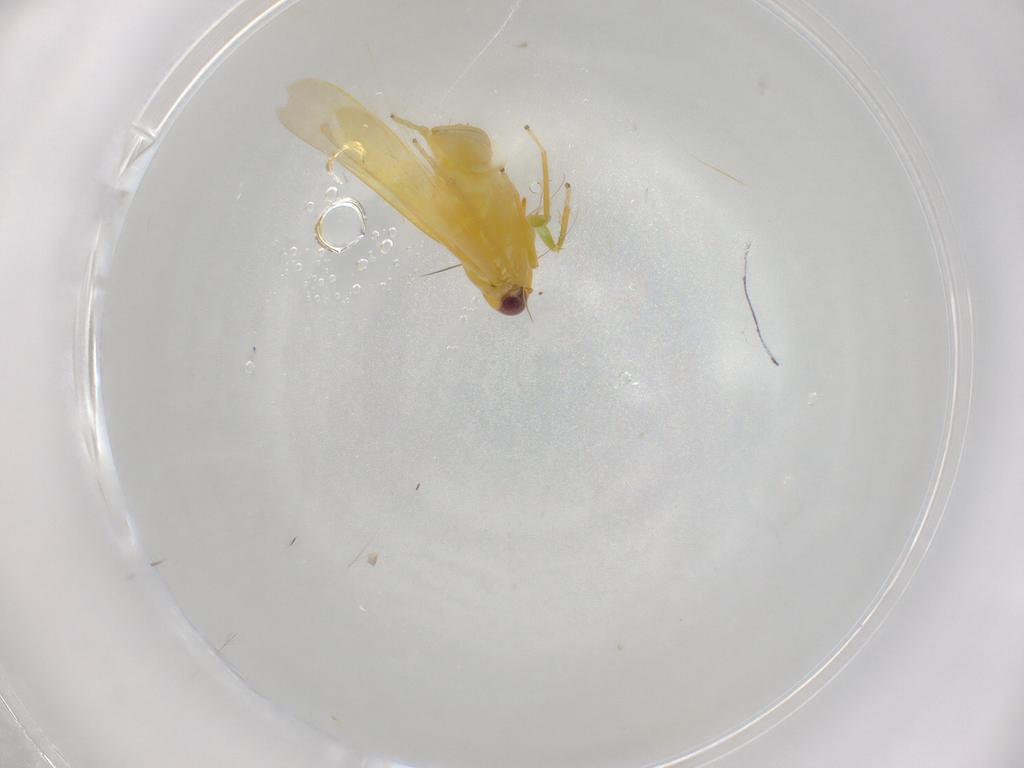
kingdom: Animalia
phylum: Arthropoda
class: Insecta
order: Hemiptera
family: Cicadellidae
